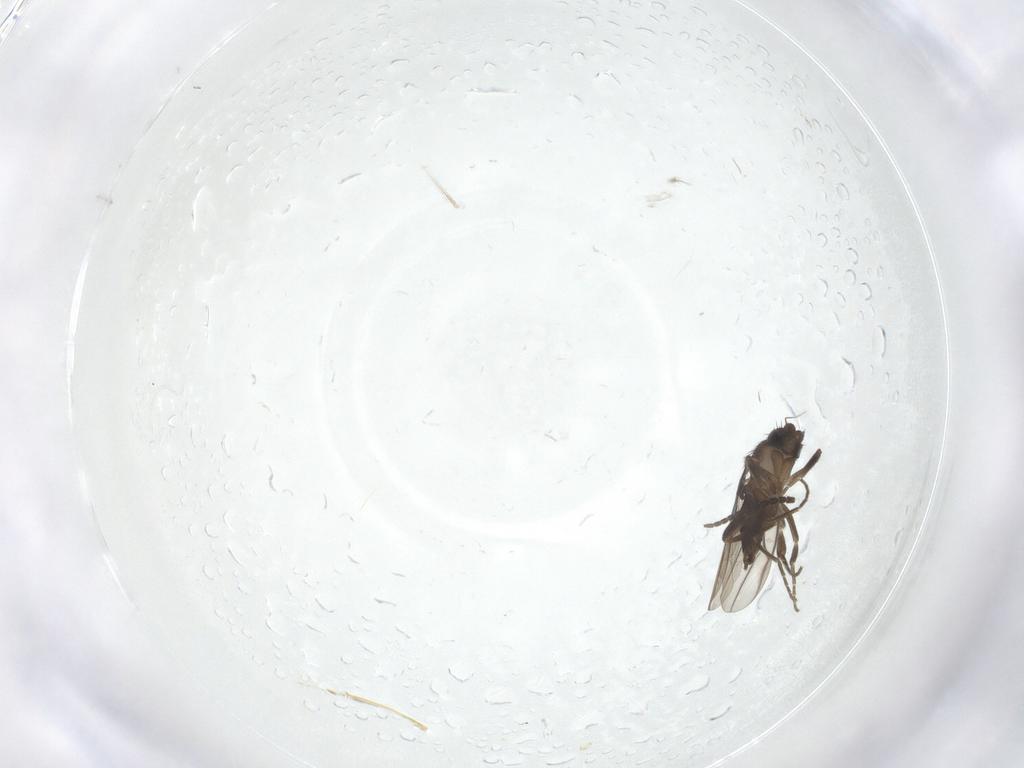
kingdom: Animalia
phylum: Arthropoda
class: Insecta
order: Diptera
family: Sciaridae
